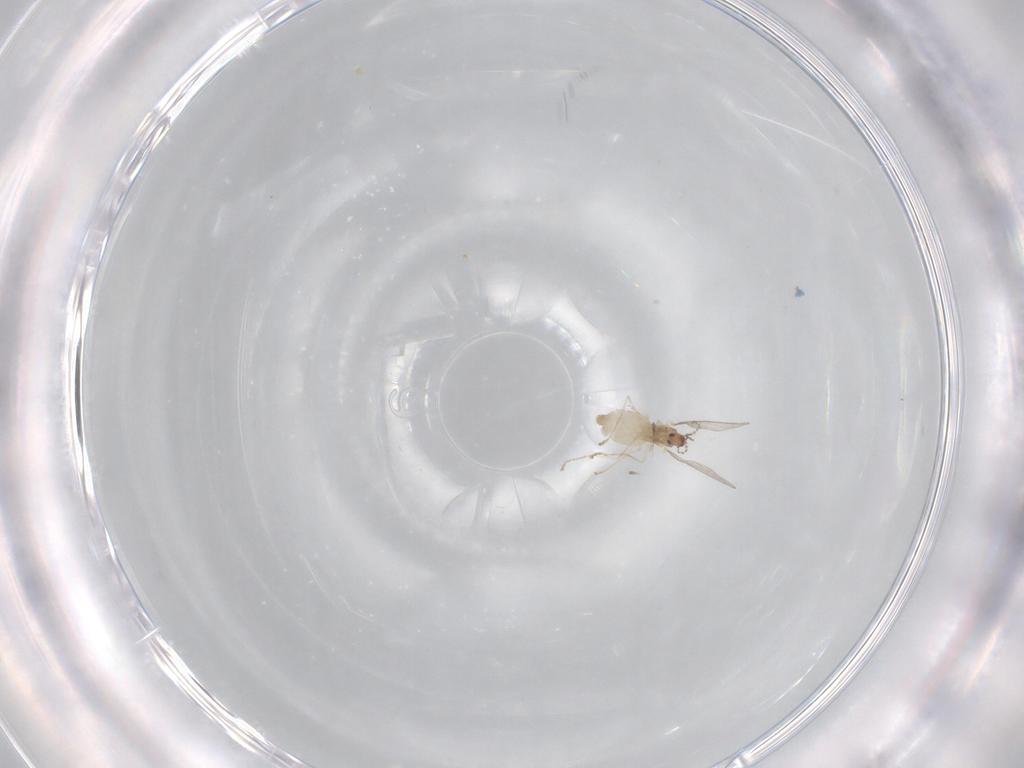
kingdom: Animalia
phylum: Arthropoda
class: Insecta
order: Diptera
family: Cecidomyiidae
